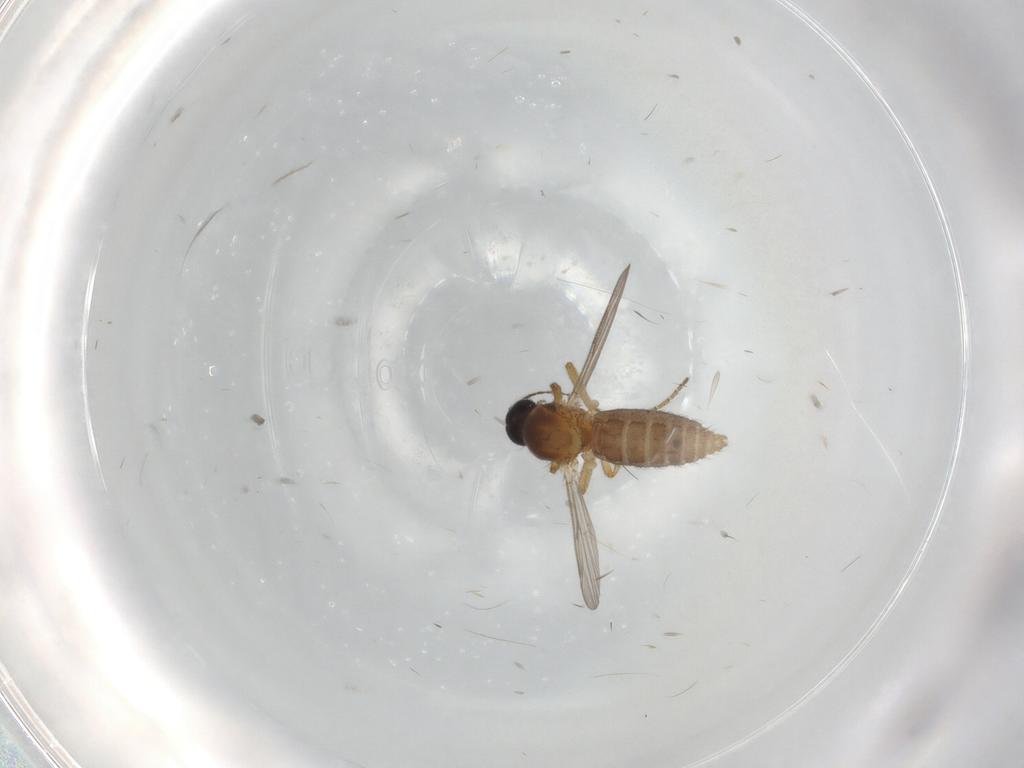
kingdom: Animalia
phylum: Arthropoda
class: Insecta
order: Diptera
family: Ceratopogonidae
